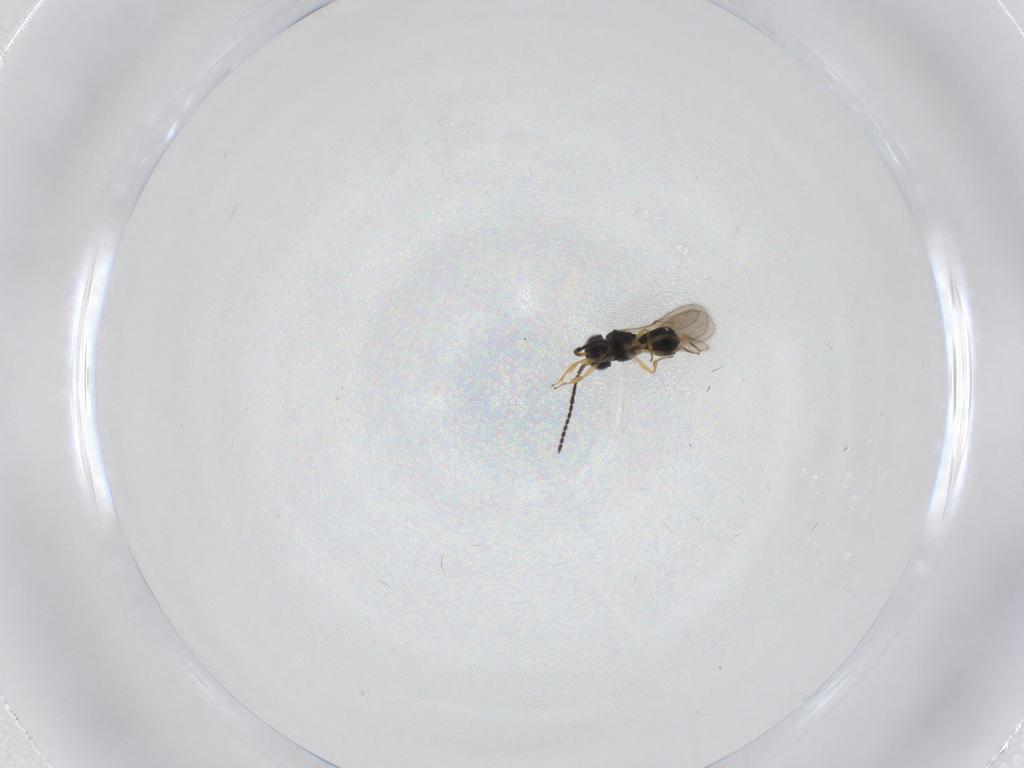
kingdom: Animalia
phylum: Arthropoda
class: Insecta
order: Hymenoptera
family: Scelionidae
